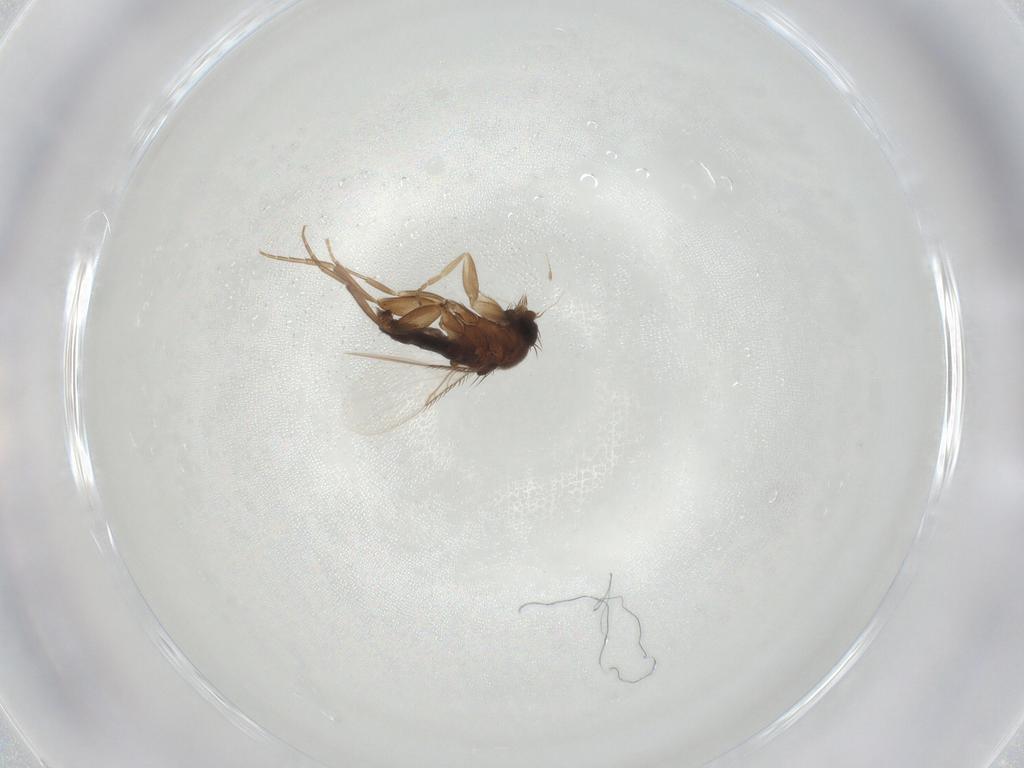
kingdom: Animalia
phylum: Arthropoda
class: Insecta
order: Diptera
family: Phoridae
